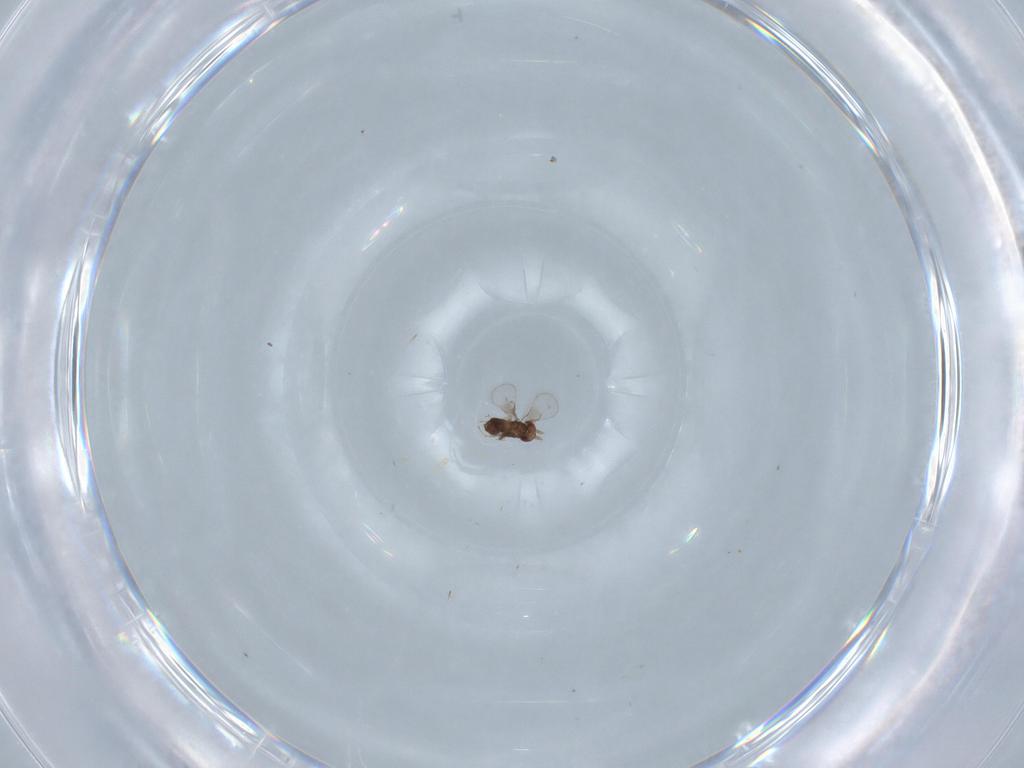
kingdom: Animalia
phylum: Arthropoda
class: Insecta
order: Hymenoptera
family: Trichogrammatidae
